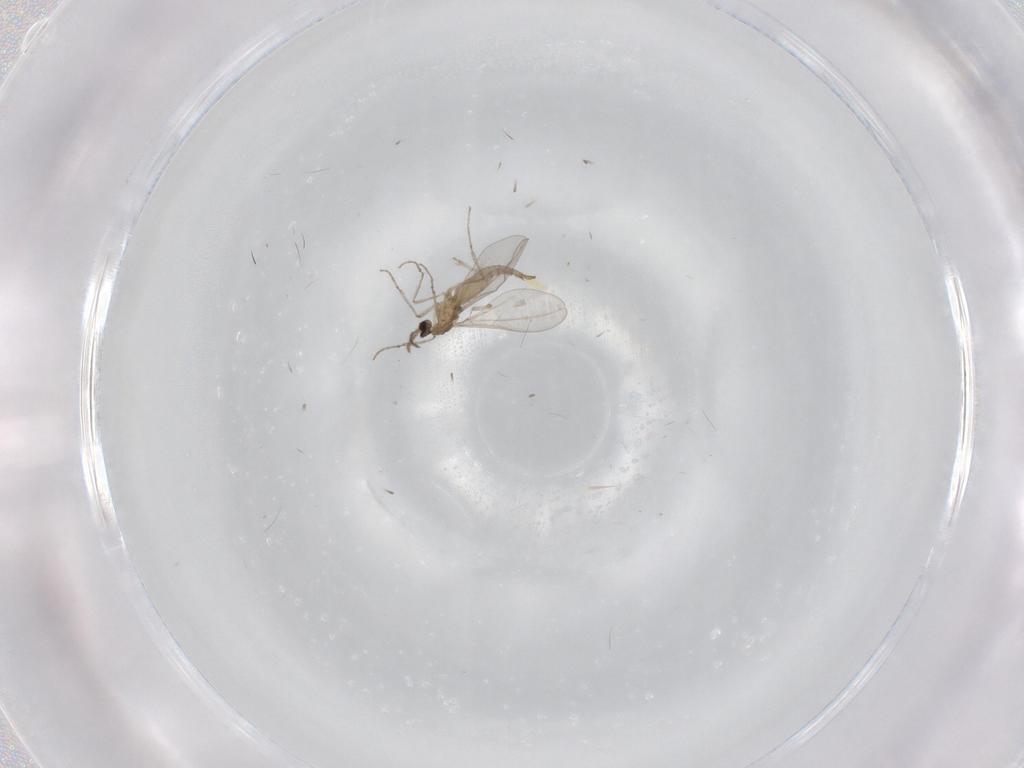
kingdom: Animalia
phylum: Arthropoda
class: Insecta
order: Diptera
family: Cecidomyiidae
